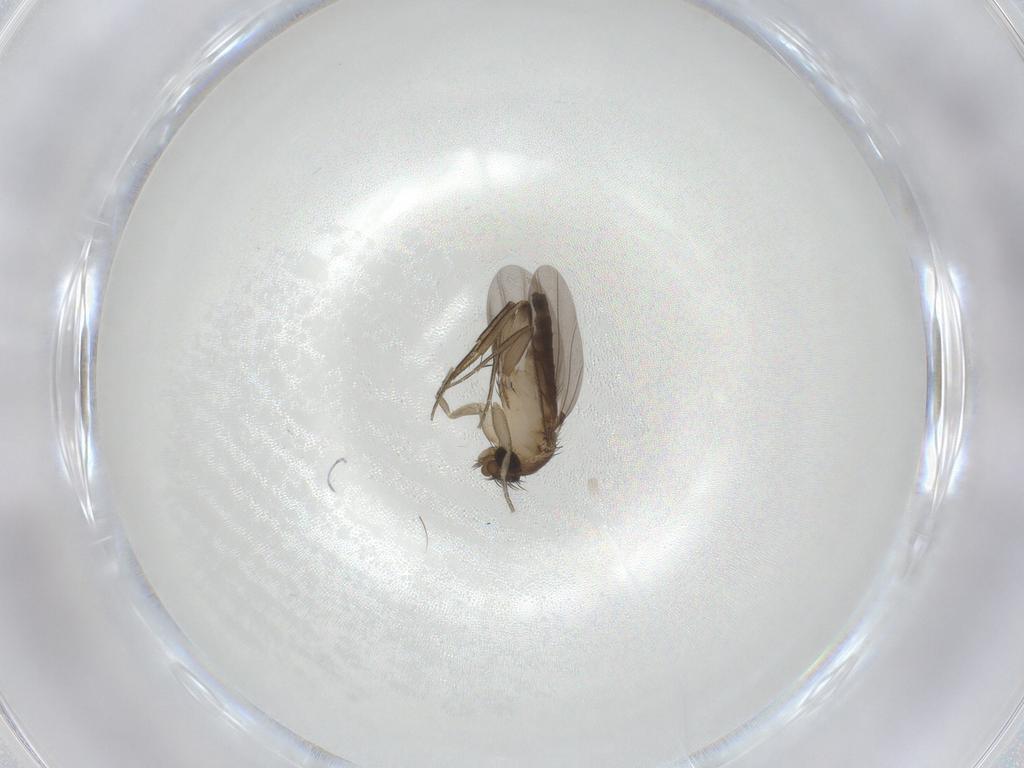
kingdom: Animalia
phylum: Arthropoda
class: Insecta
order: Diptera
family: Phoridae
